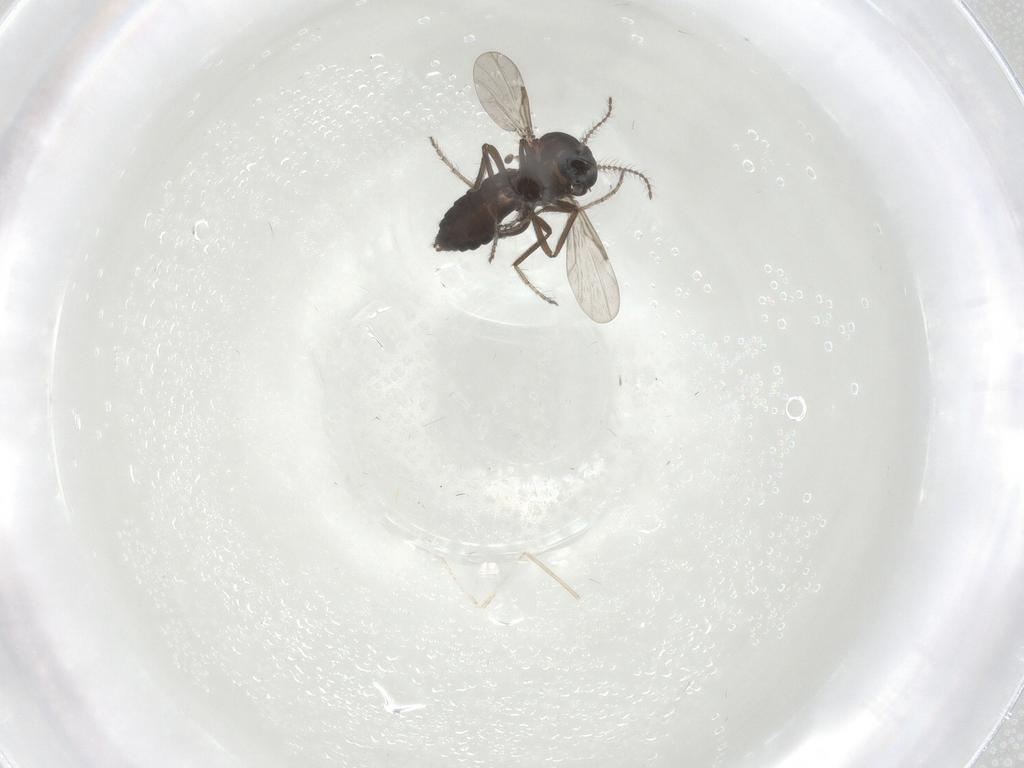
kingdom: Animalia
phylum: Arthropoda
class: Insecta
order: Diptera
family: Ceratopogonidae
